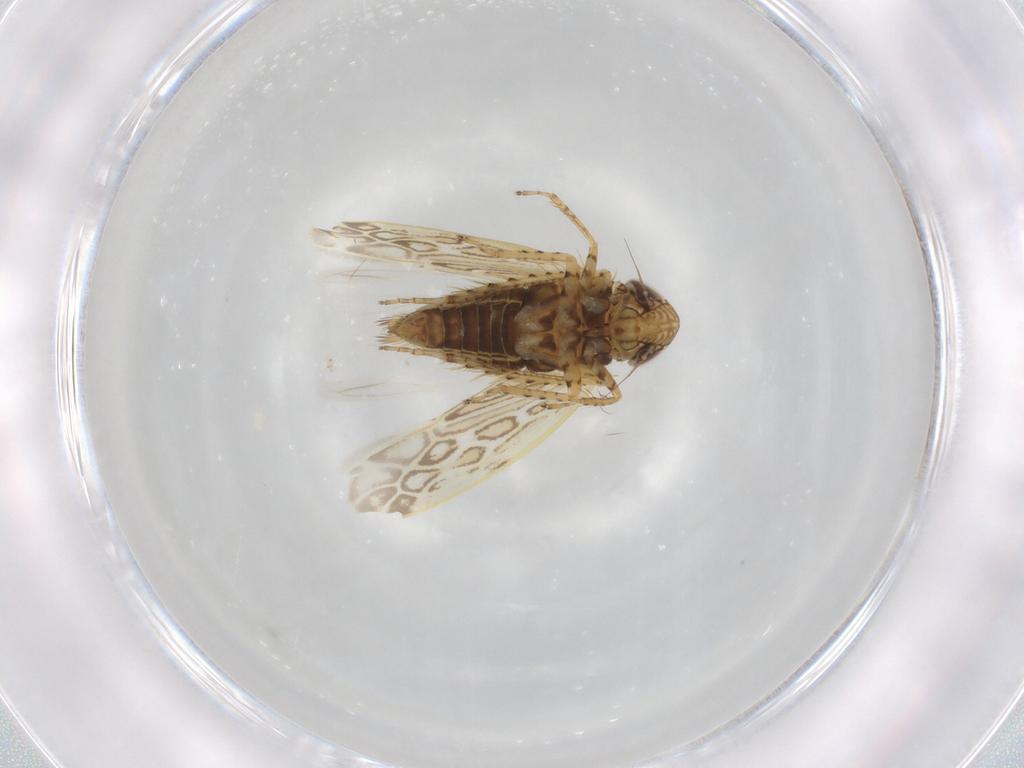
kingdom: Animalia
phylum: Arthropoda
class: Insecta
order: Hemiptera
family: Cicadellidae
